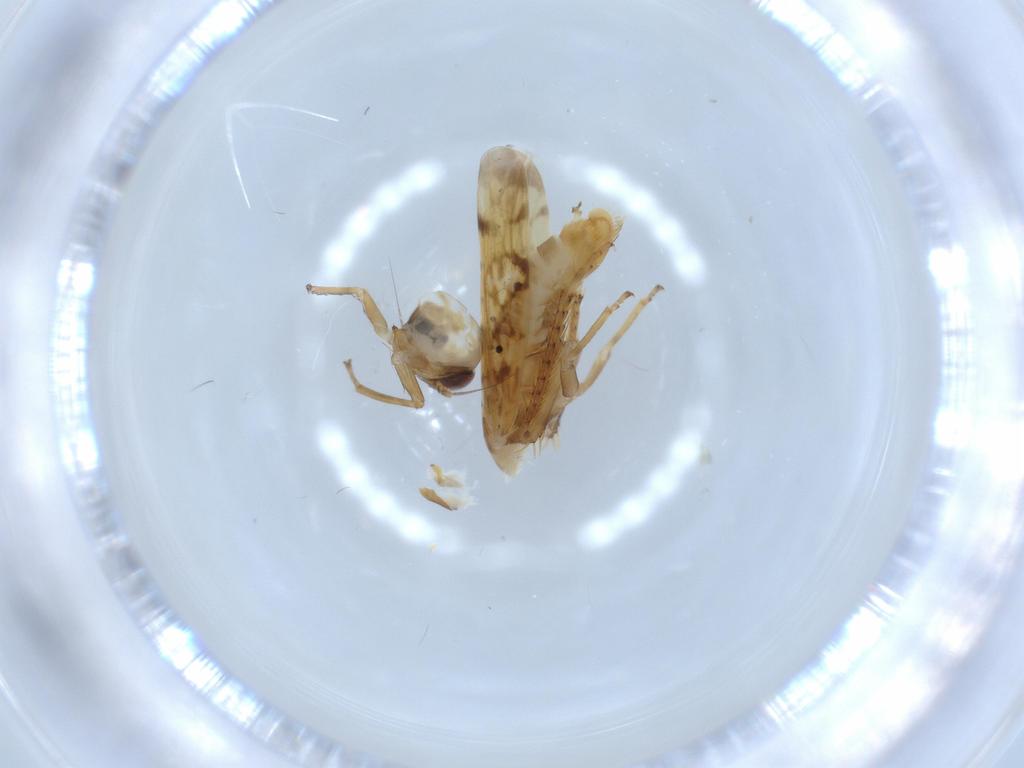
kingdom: Animalia
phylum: Arthropoda
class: Insecta
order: Hemiptera
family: Cicadellidae
